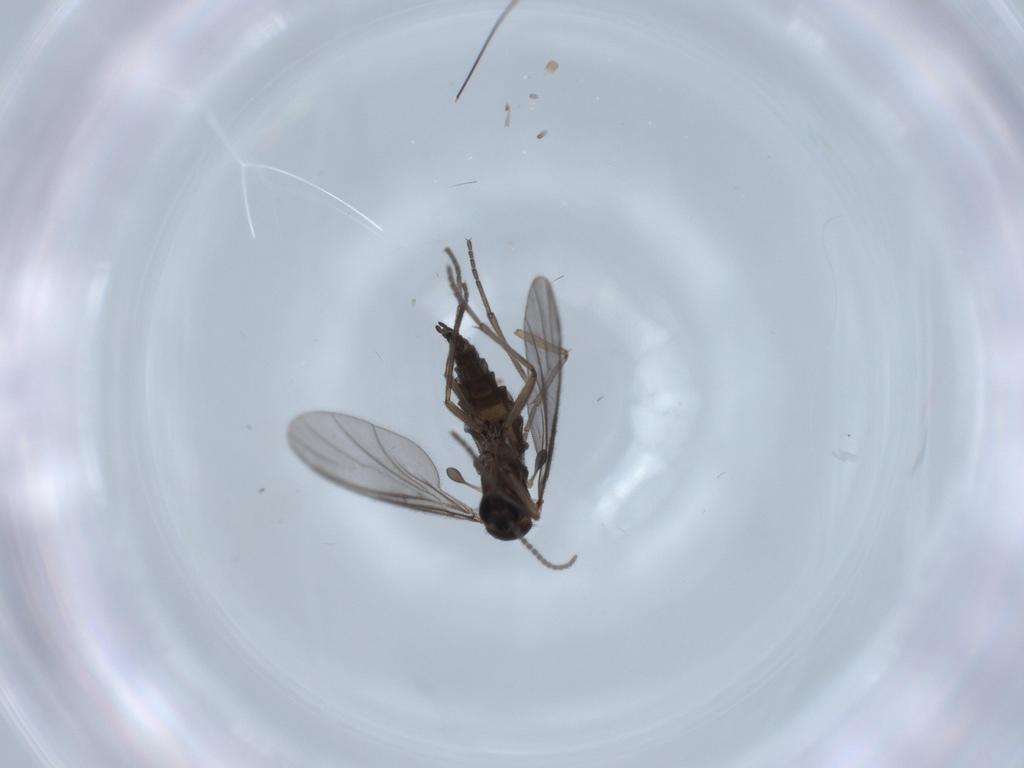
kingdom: Animalia
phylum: Arthropoda
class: Insecta
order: Diptera
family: Sciaridae
